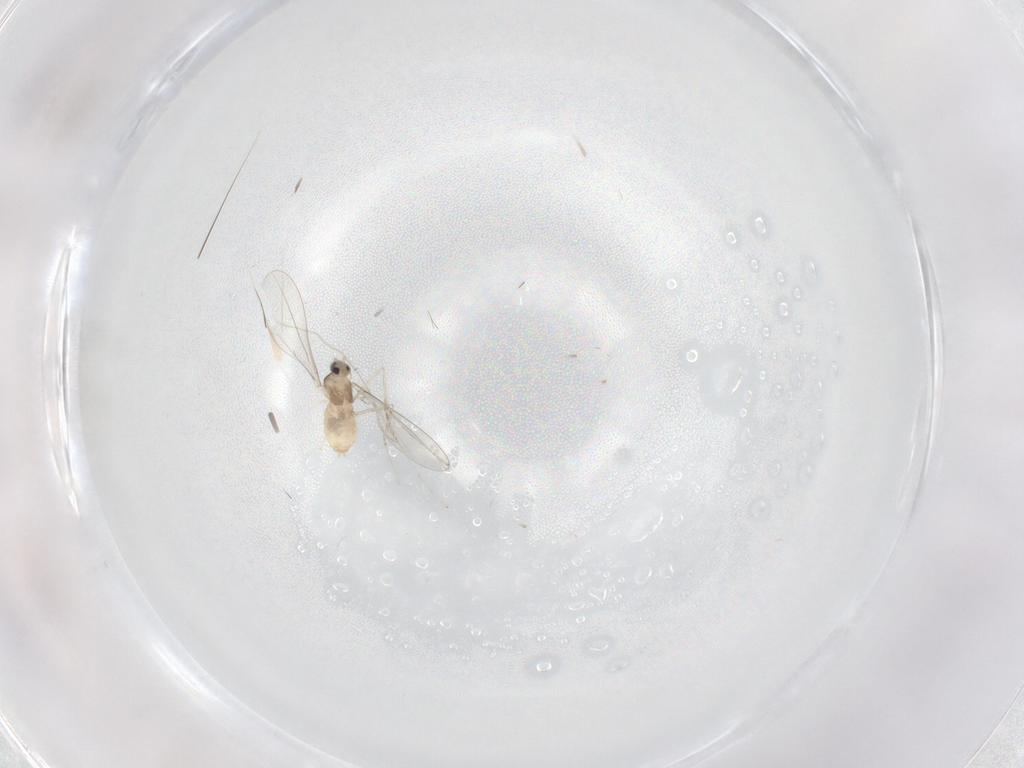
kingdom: Animalia
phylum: Arthropoda
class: Insecta
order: Diptera
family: Cecidomyiidae
